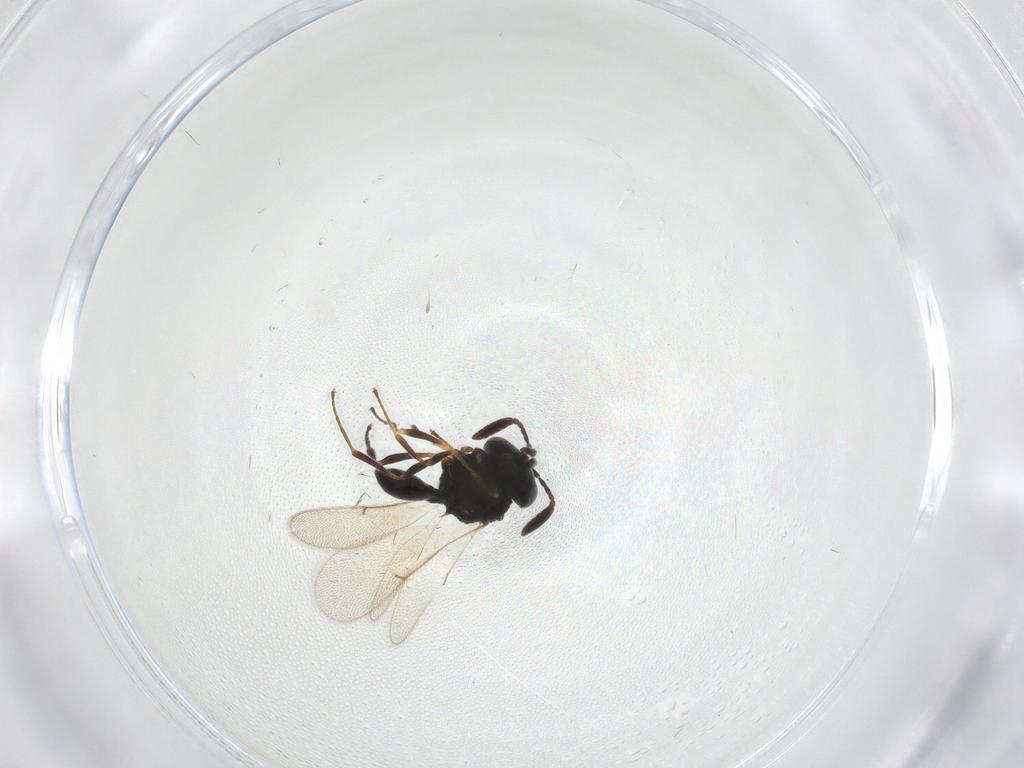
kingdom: Animalia
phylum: Arthropoda
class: Insecta
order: Hymenoptera
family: Scelionidae
